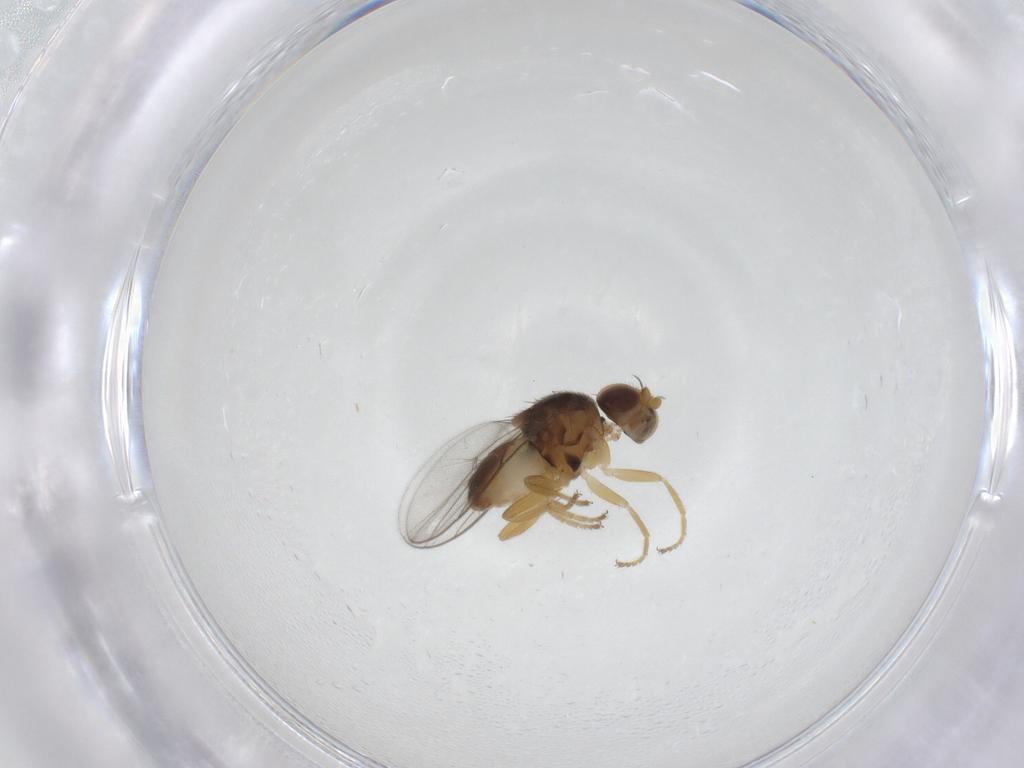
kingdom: Animalia
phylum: Arthropoda
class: Insecta
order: Diptera
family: Chloropidae
